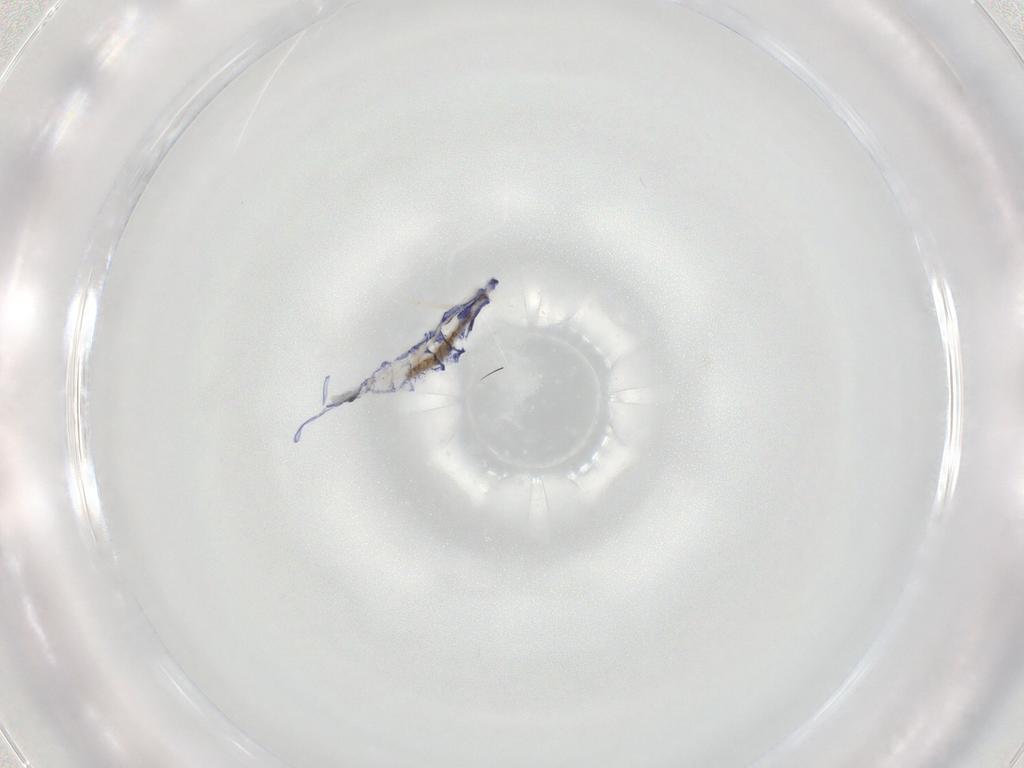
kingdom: Animalia
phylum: Arthropoda
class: Collembola
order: Entomobryomorpha
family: Entomobryidae
